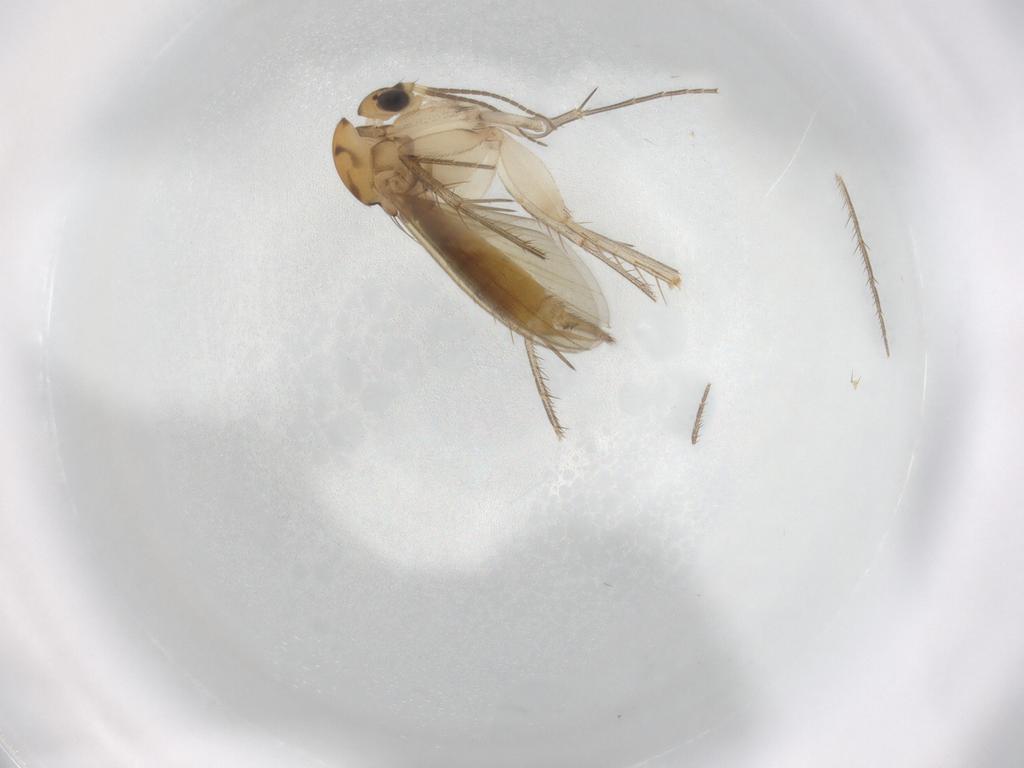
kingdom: Animalia
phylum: Arthropoda
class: Insecta
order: Diptera
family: Mycetophilidae
